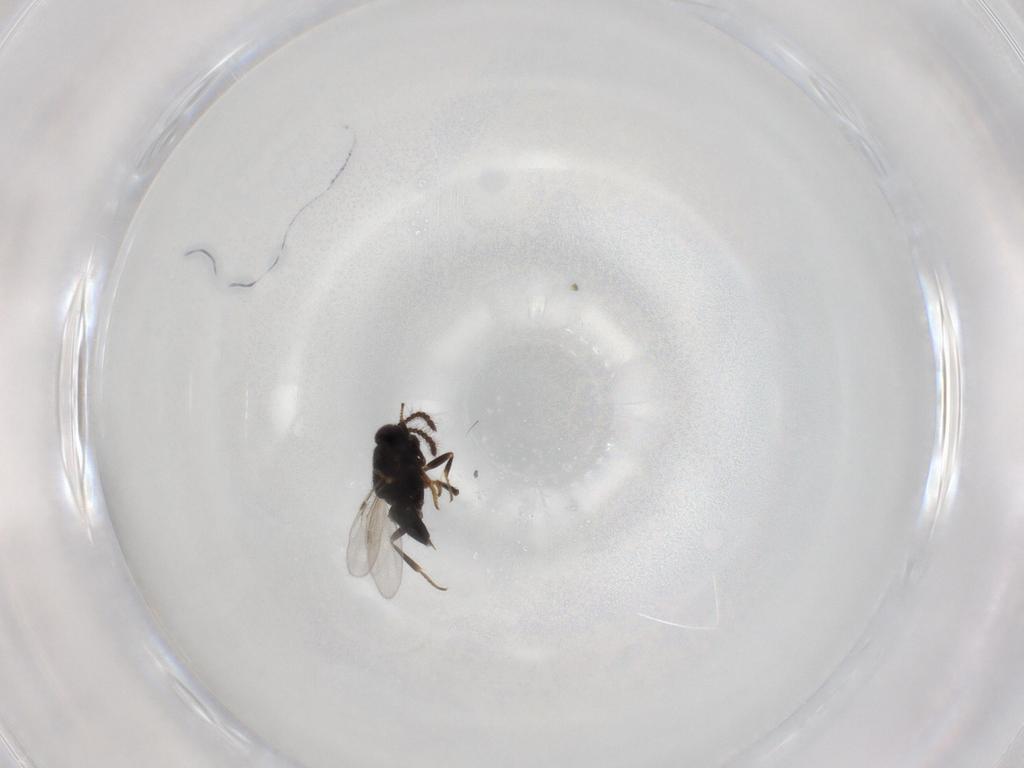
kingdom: Animalia
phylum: Arthropoda
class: Insecta
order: Hymenoptera
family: Encyrtidae
